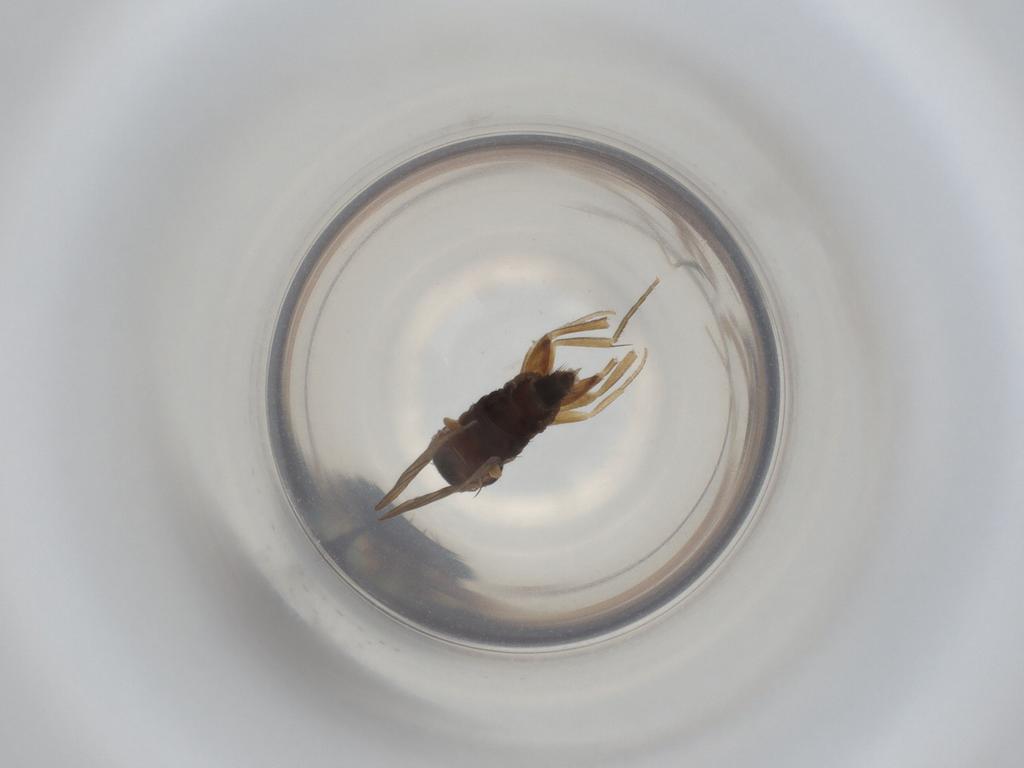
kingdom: Animalia
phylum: Arthropoda
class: Insecta
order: Diptera
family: Phoridae
